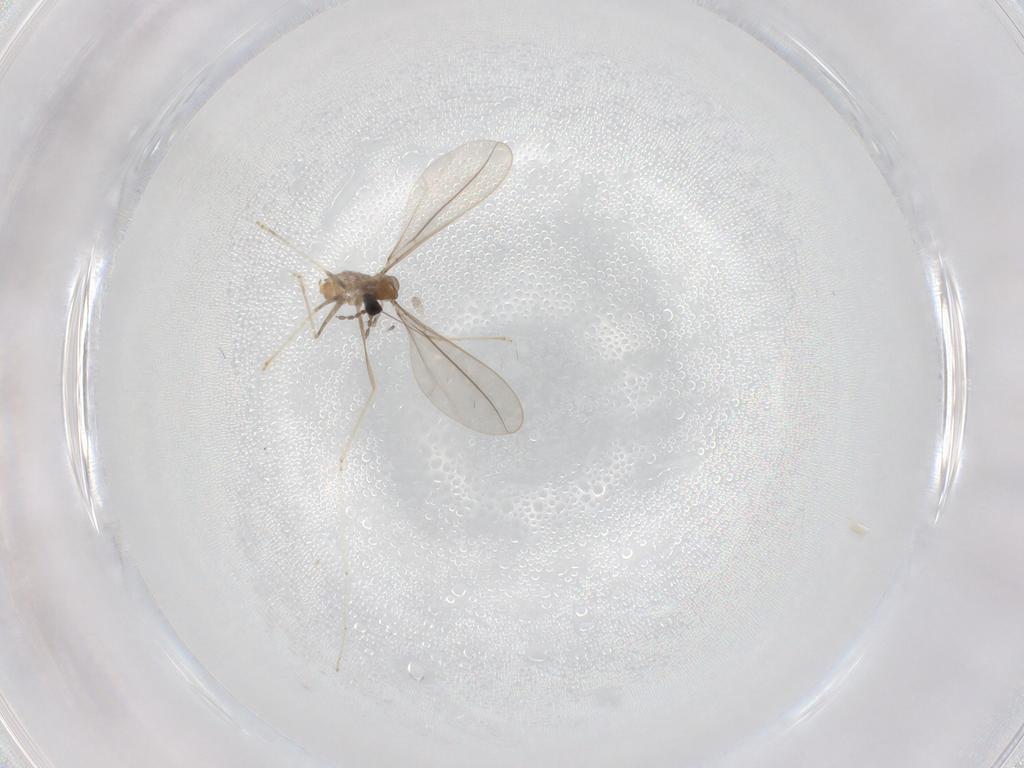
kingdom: Animalia
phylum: Arthropoda
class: Insecta
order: Diptera
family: Cecidomyiidae
